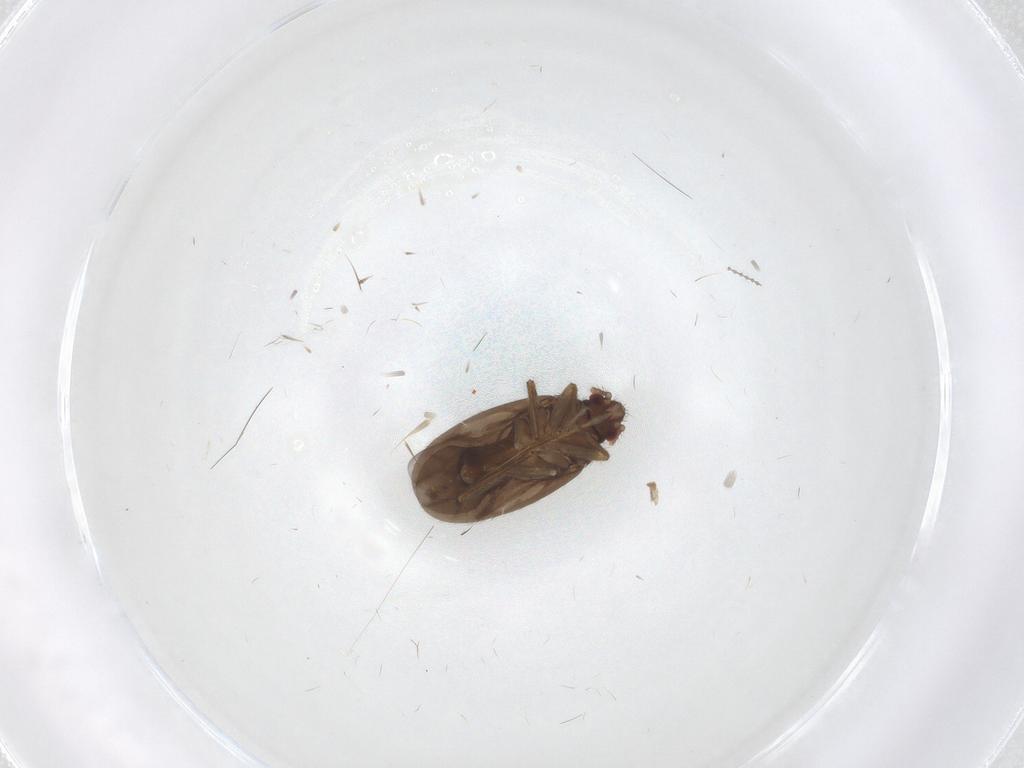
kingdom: Animalia
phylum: Arthropoda
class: Insecta
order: Hemiptera
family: Ceratocombidae
